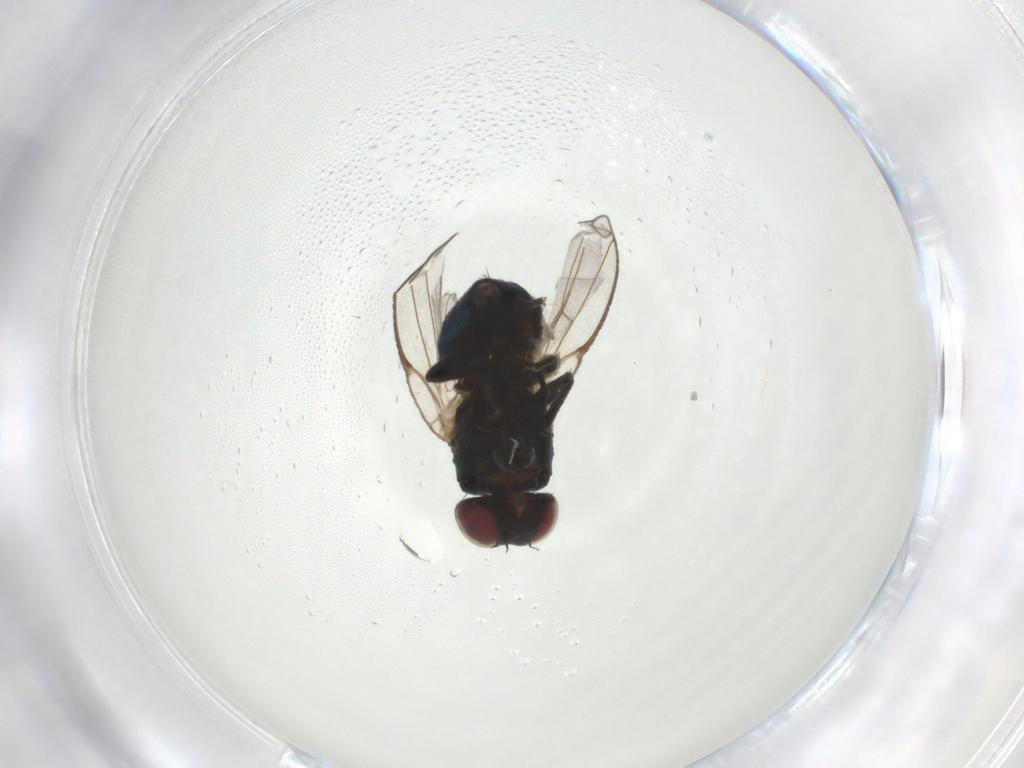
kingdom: Animalia
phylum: Arthropoda
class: Insecta
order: Diptera
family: Agromyzidae
